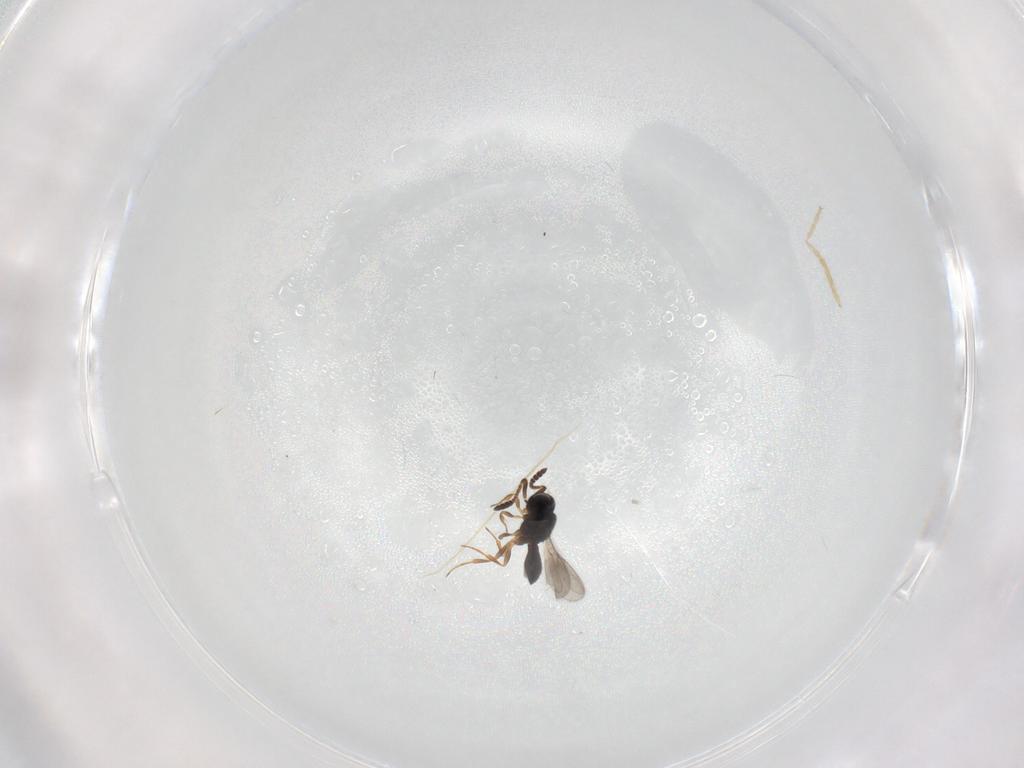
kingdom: Animalia
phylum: Arthropoda
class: Insecta
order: Hymenoptera
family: Scelionidae
